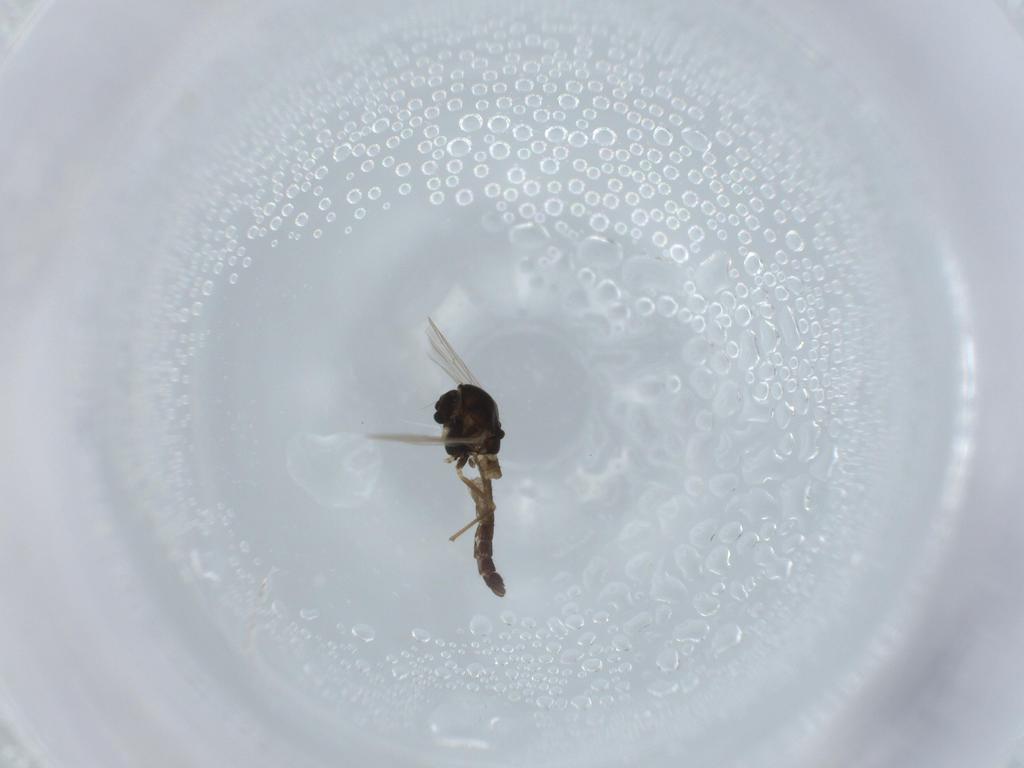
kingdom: Animalia
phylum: Arthropoda
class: Insecta
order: Diptera
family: Chironomidae
